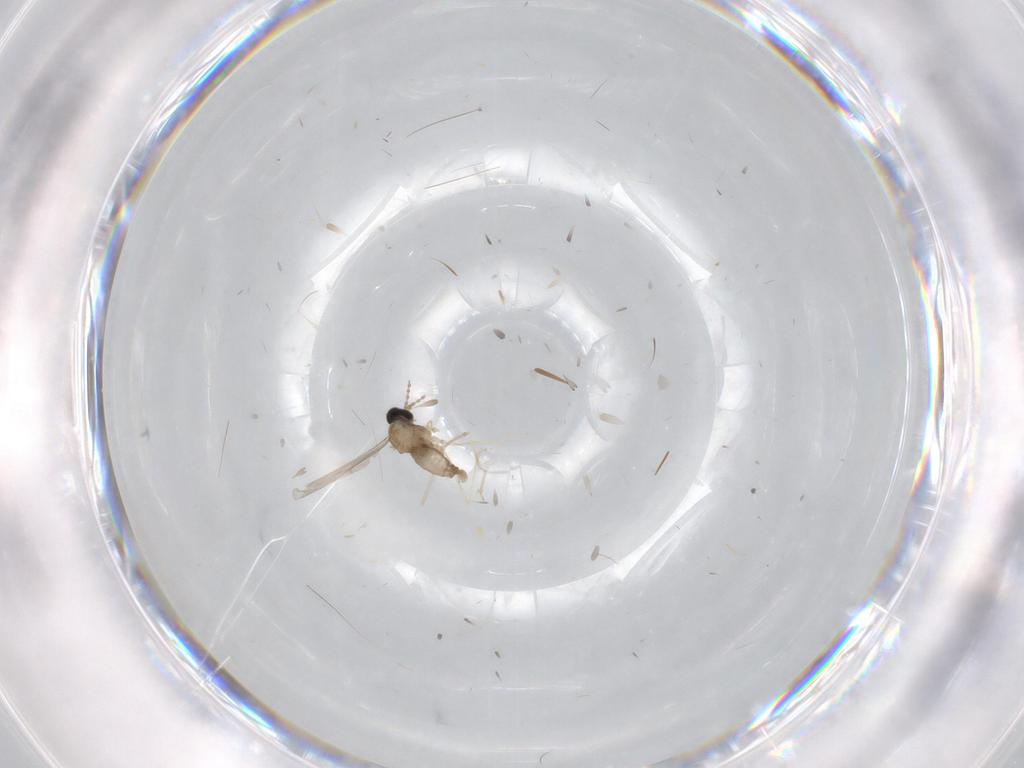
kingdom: Animalia
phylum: Arthropoda
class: Insecta
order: Diptera
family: Cecidomyiidae
